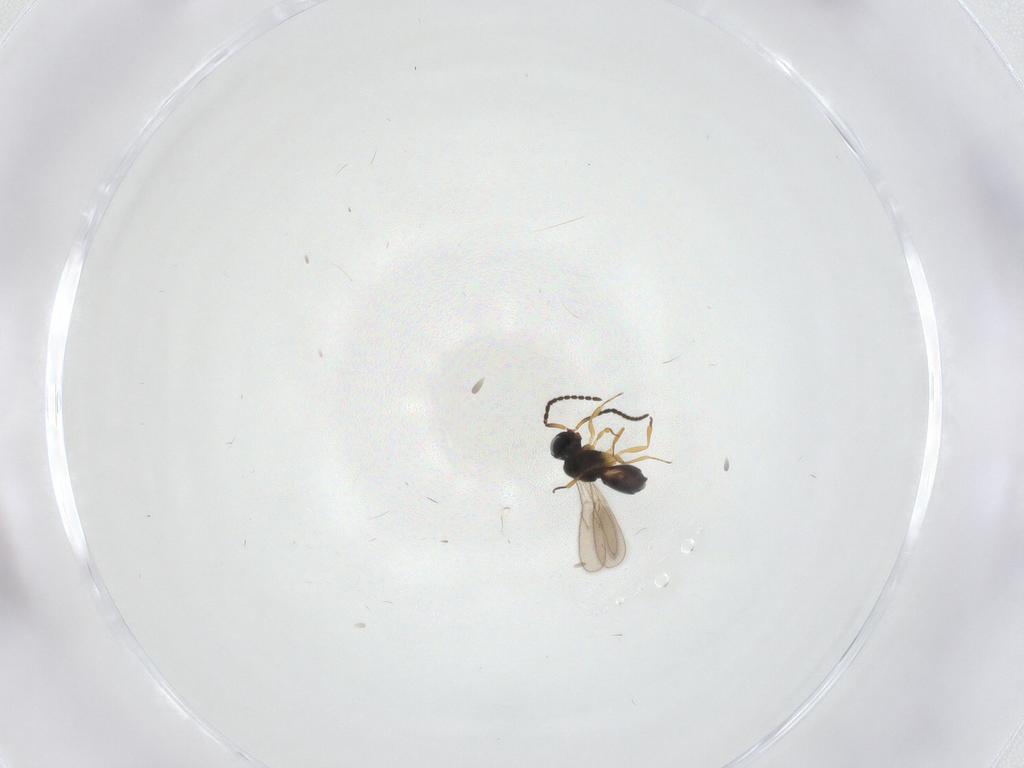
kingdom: Animalia
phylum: Arthropoda
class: Insecta
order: Hymenoptera
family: Scelionidae
